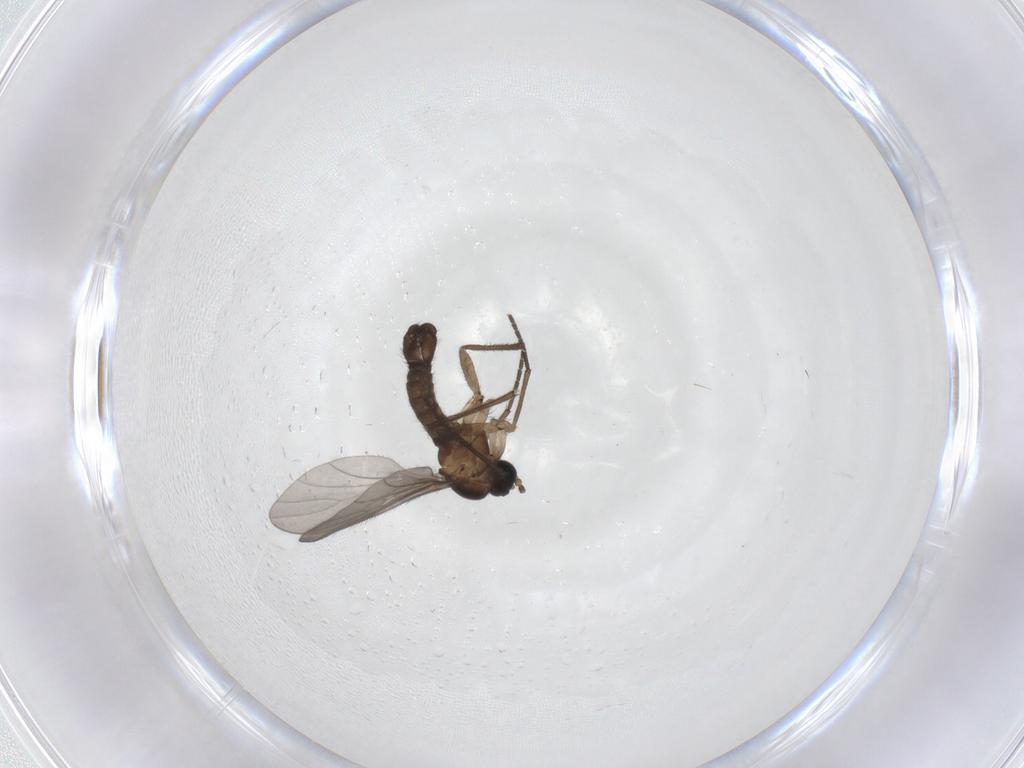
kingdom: Animalia
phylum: Arthropoda
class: Insecta
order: Diptera
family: Sciaridae
